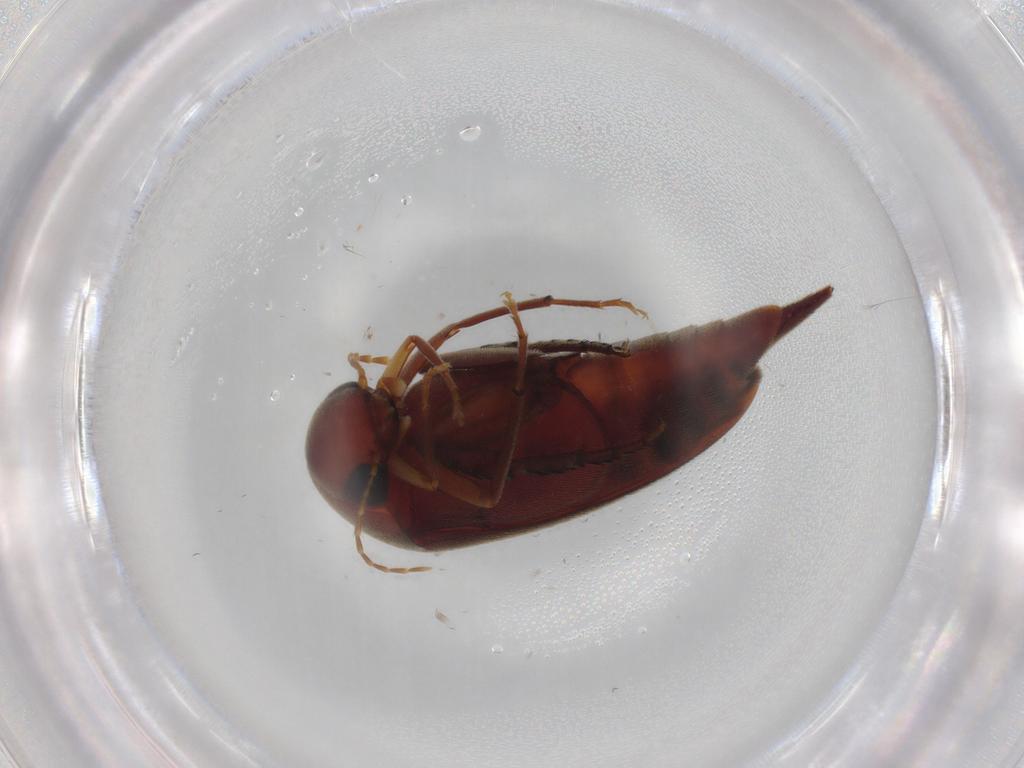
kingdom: Animalia
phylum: Arthropoda
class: Insecta
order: Coleoptera
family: Mordellidae
